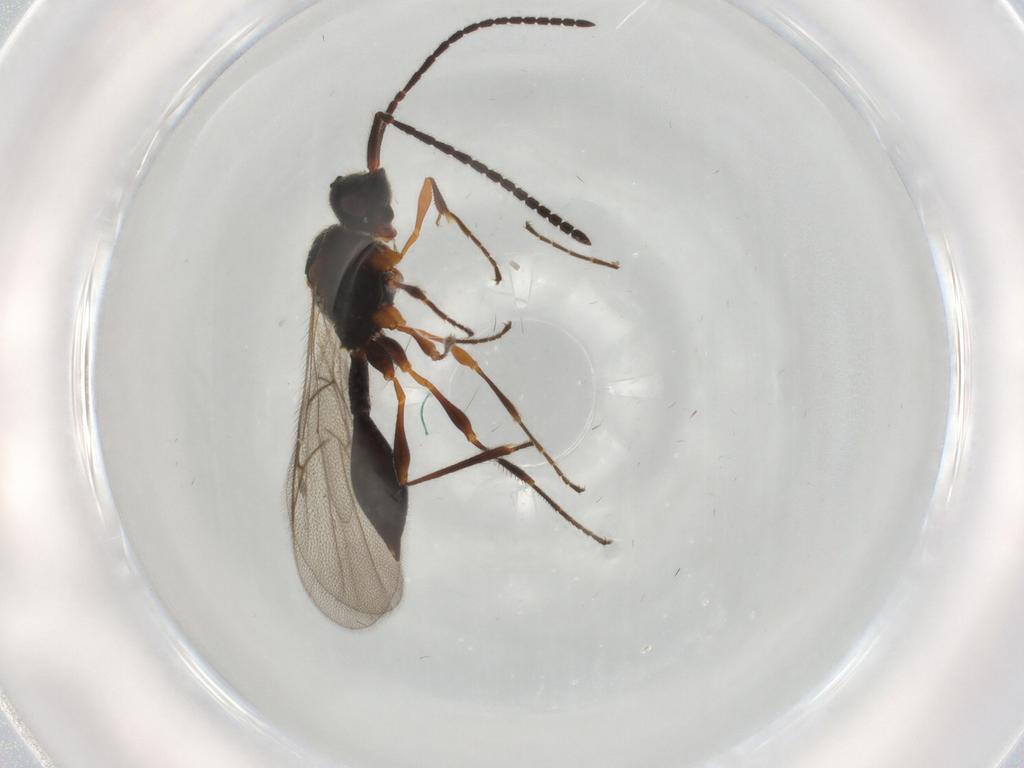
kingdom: Animalia
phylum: Arthropoda
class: Insecta
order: Hymenoptera
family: Diapriidae
